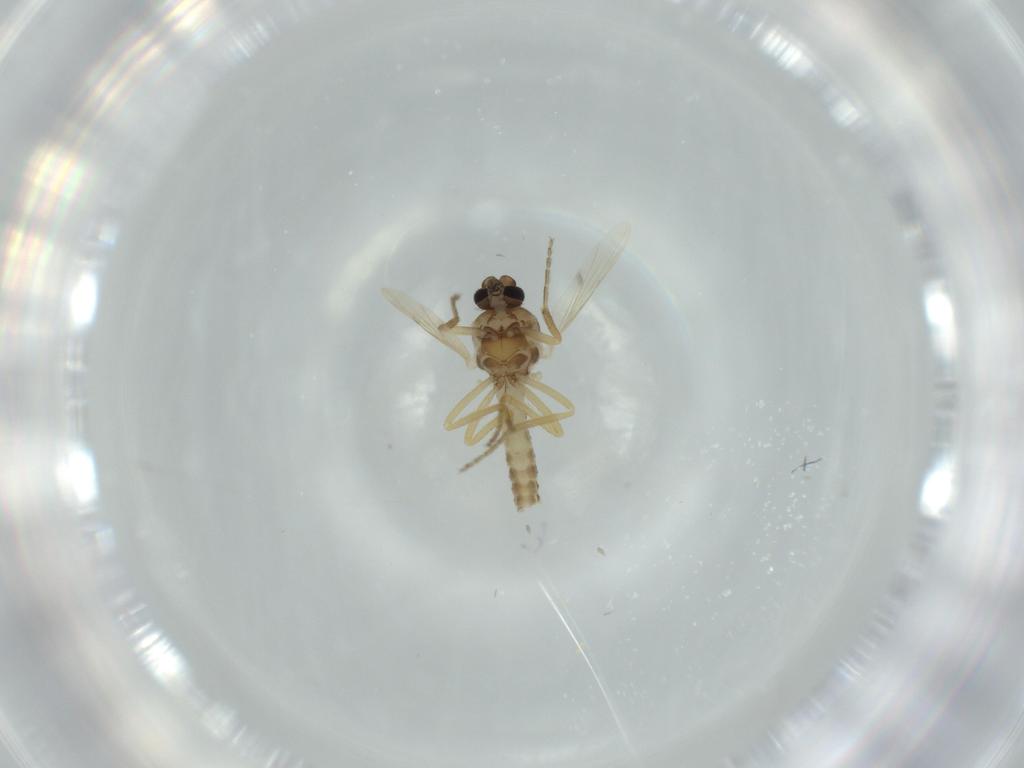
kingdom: Animalia
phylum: Arthropoda
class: Insecta
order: Diptera
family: Ceratopogonidae
